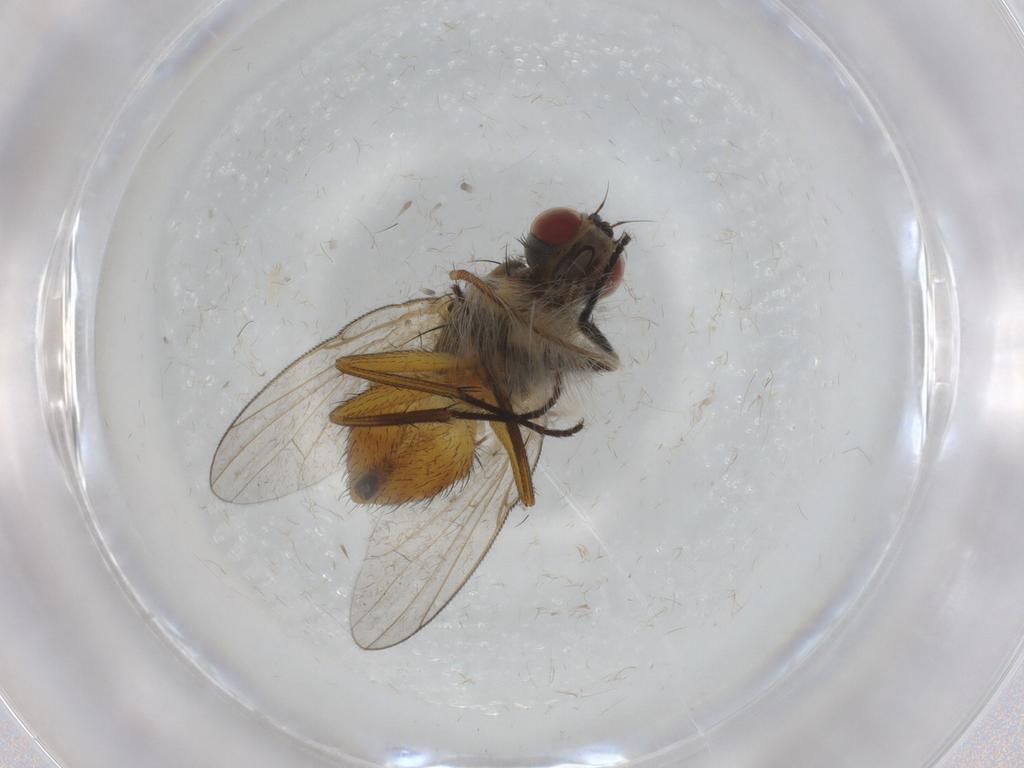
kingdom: Animalia
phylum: Arthropoda
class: Insecta
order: Diptera
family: Muscidae
